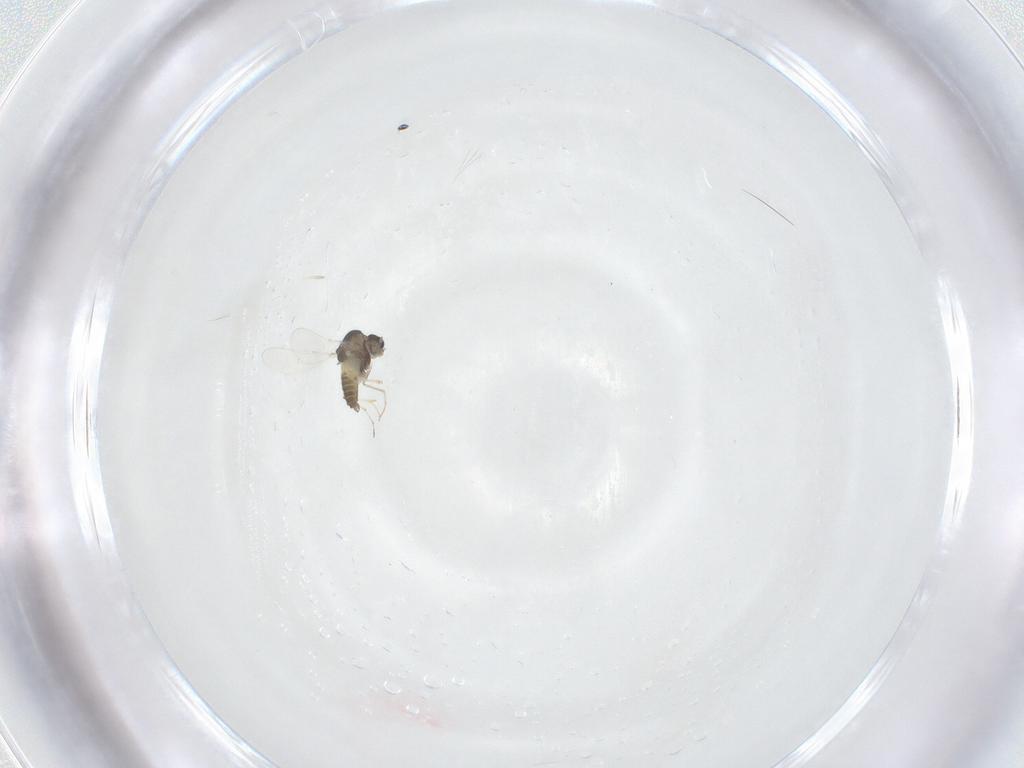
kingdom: Animalia
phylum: Arthropoda
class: Insecta
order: Diptera
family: Chironomidae
